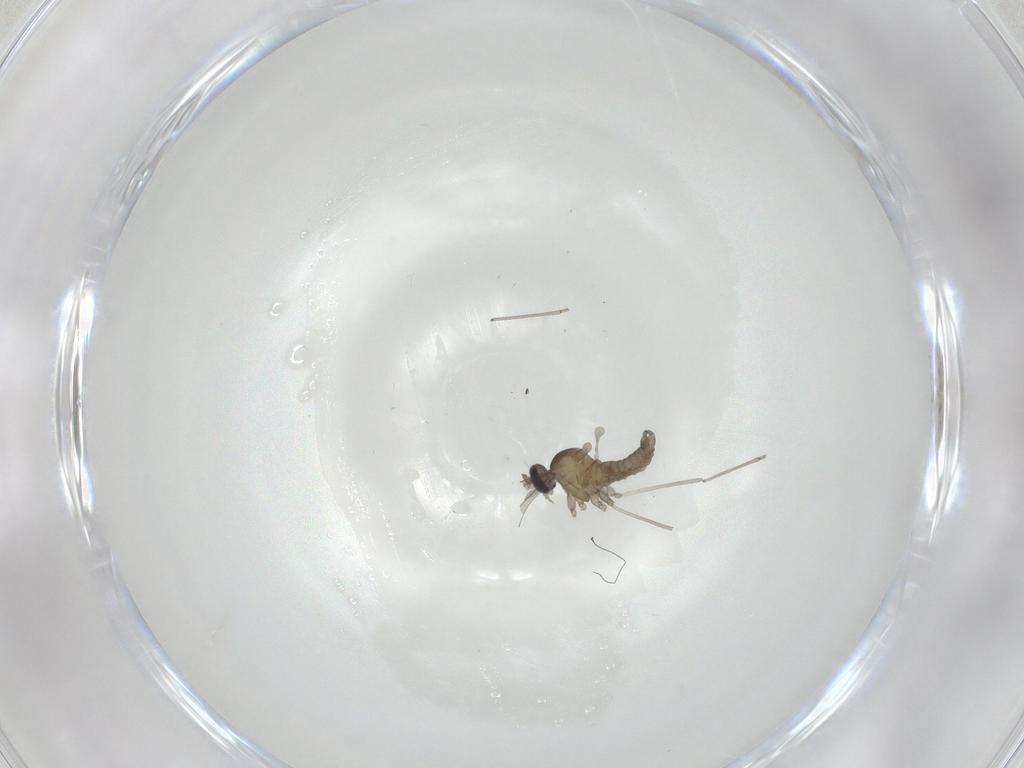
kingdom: Animalia
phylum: Arthropoda
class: Insecta
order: Diptera
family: Cecidomyiidae
